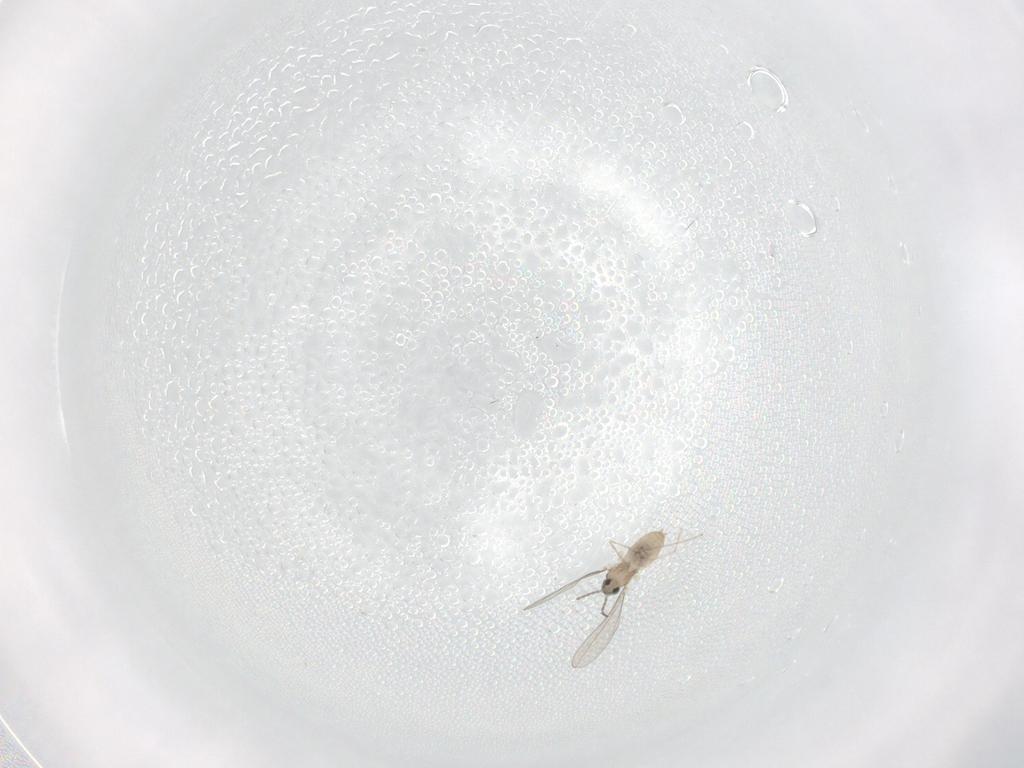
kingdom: Animalia
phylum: Arthropoda
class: Insecta
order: Diptera
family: Cecidomyiidae
